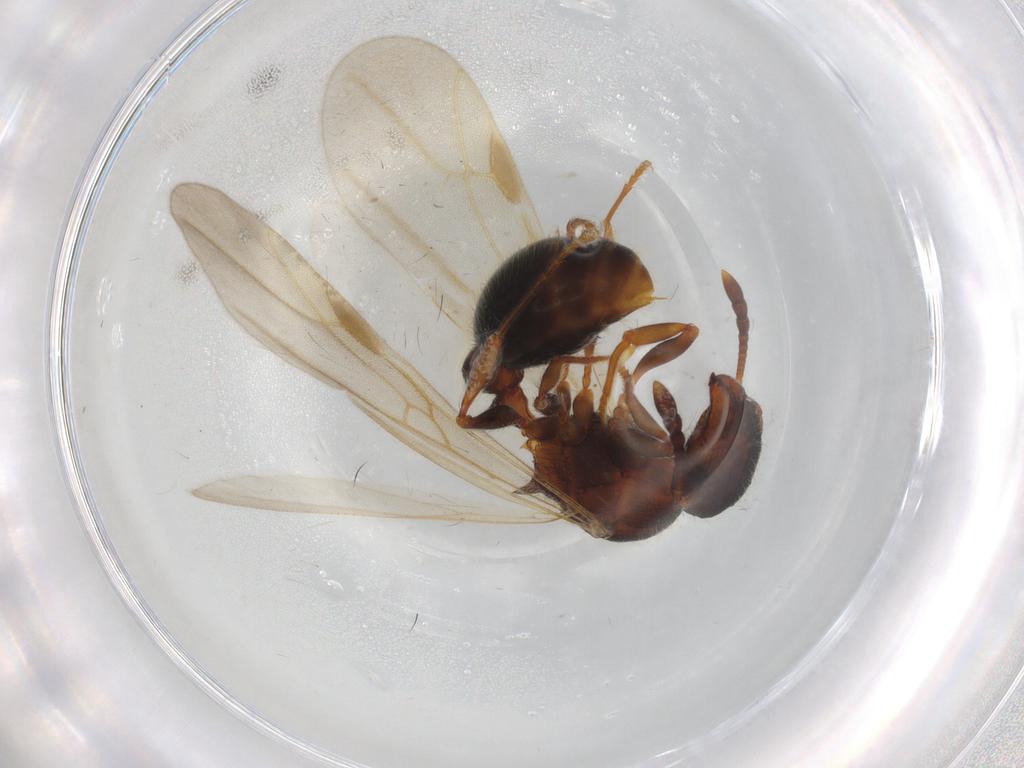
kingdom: Animalia
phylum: Arthropoda
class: Insecta
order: Hymenoptera
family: Formicidae
